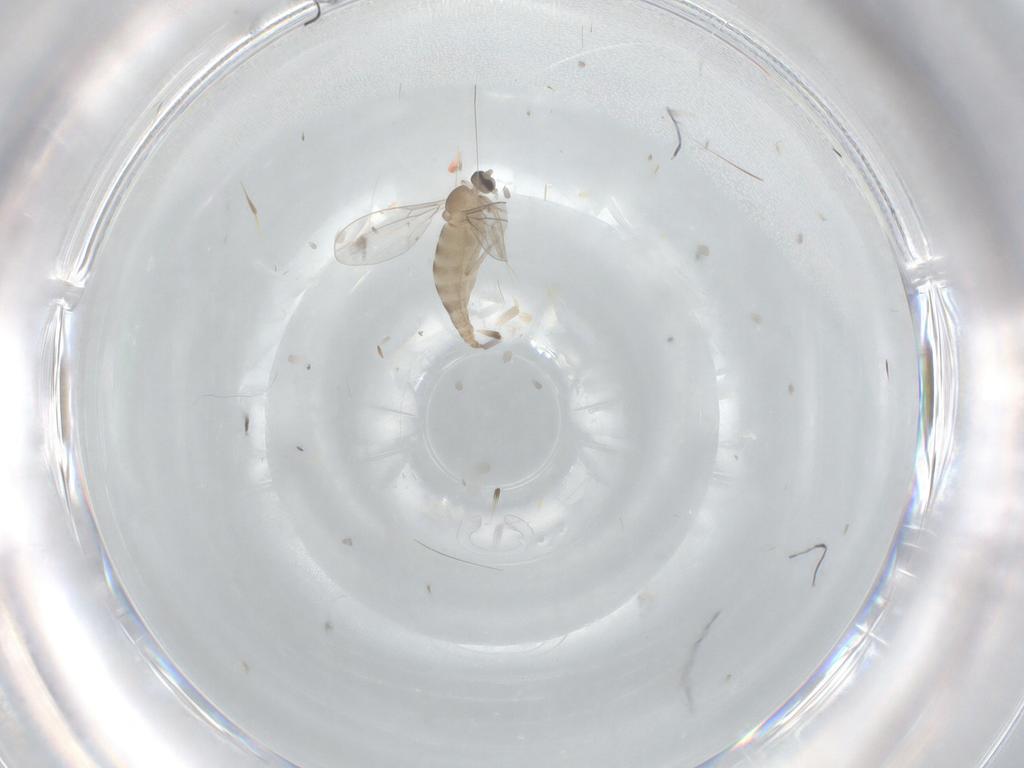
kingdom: Animalia
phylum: Arthropoda
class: Insecta
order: Diptera
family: Cecidomyiidae
